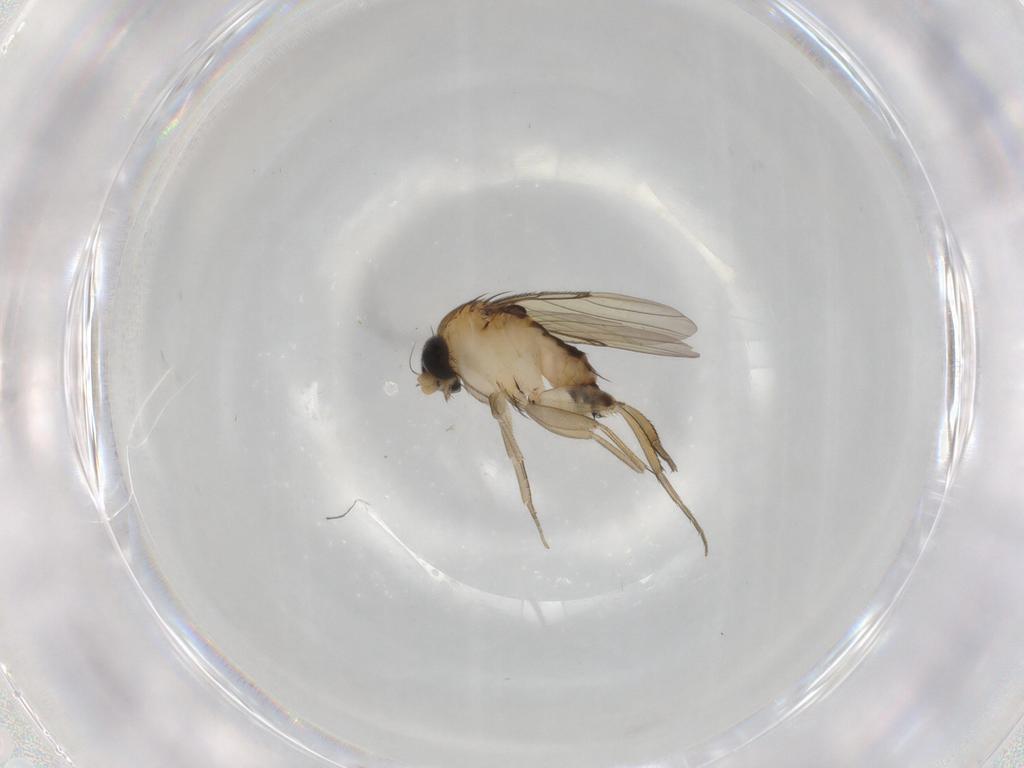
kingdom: Animalia
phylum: Arthropoda
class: Insecta
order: Diptera
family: Phoridae
